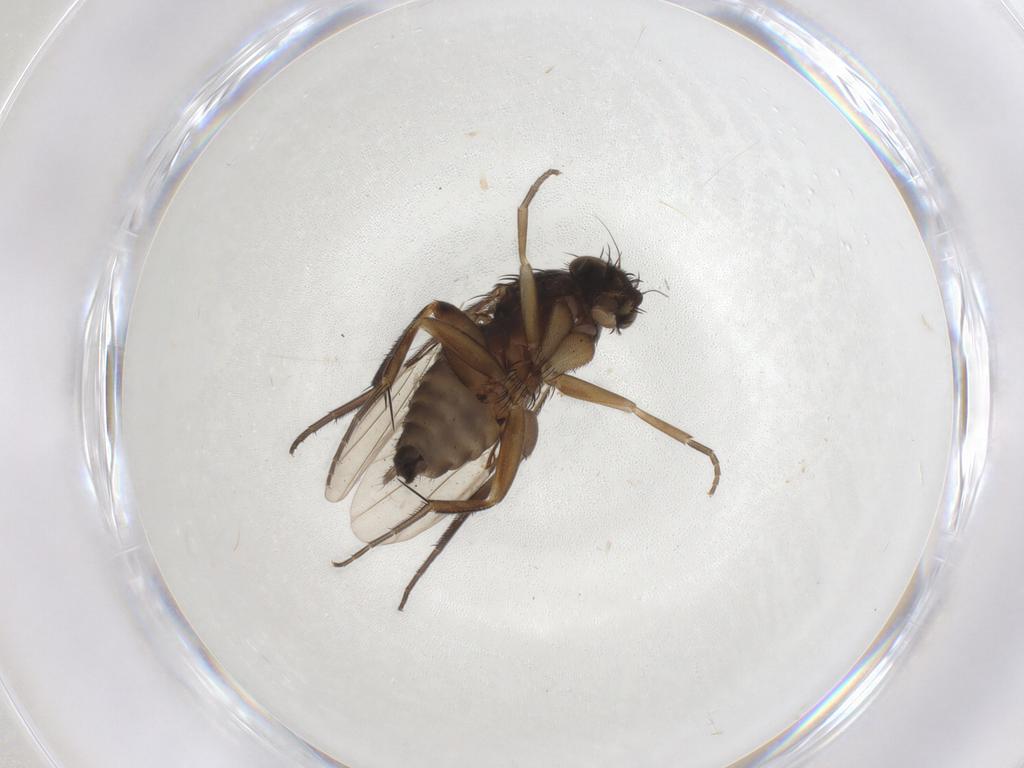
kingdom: Animalia
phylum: Arthropoda
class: Insecta
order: Diptera
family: Phoridae
